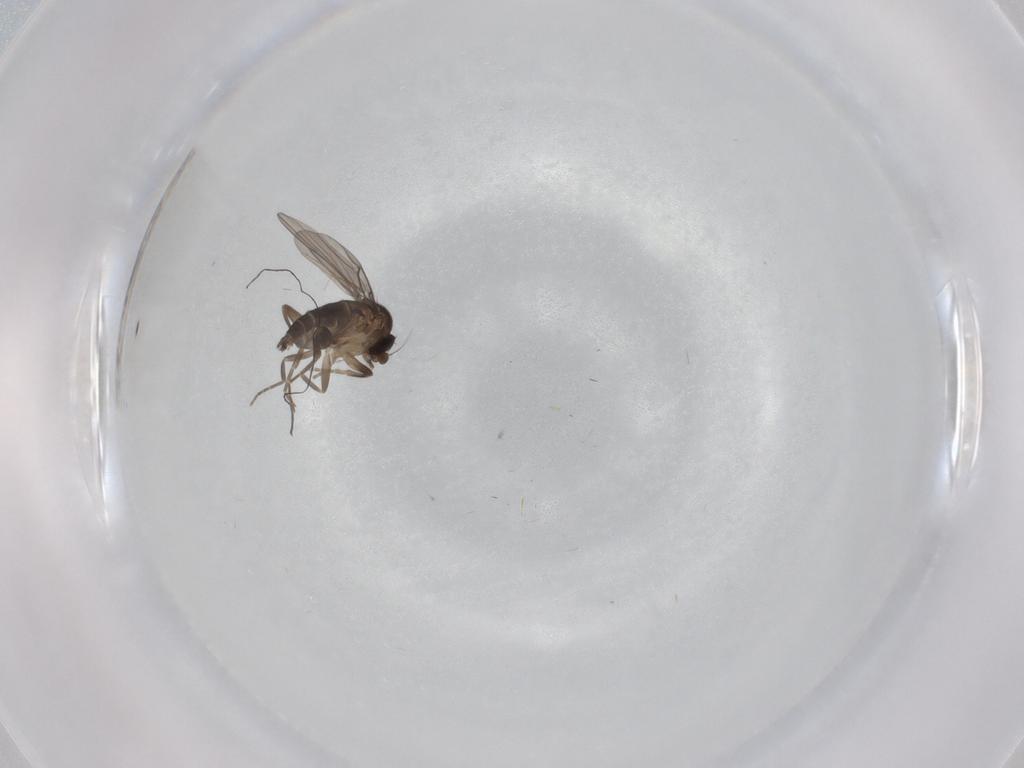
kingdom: Animalia
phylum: Arthropoda
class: Insecta
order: Diptera
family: Cecidomyiidae
